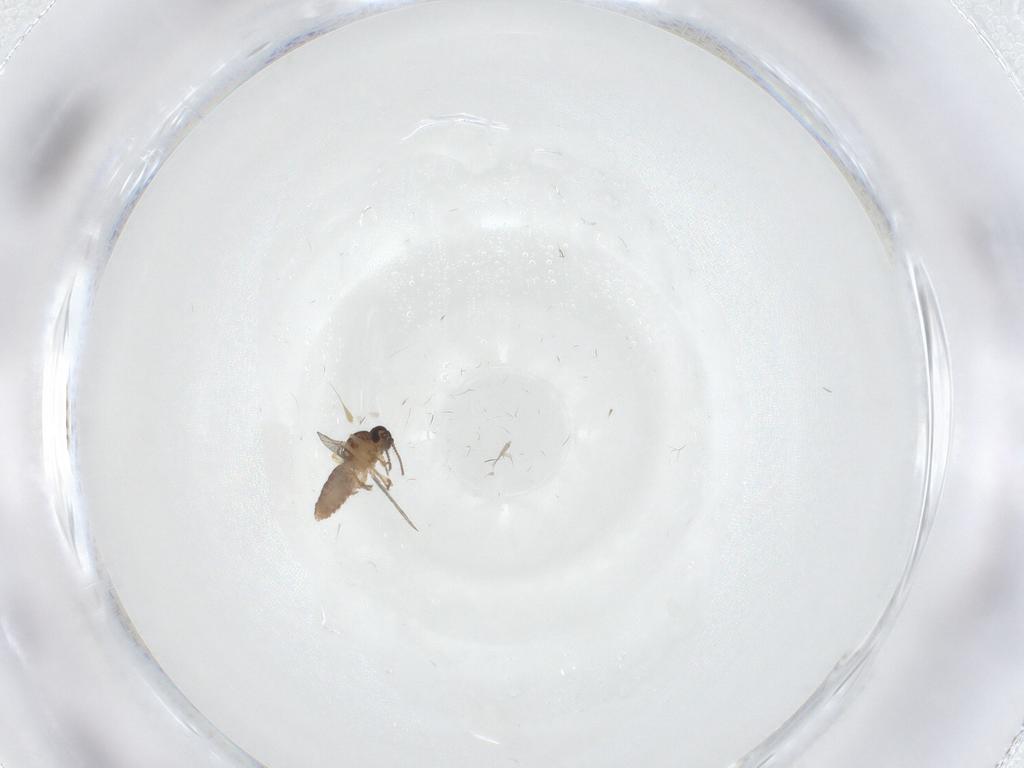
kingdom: Animalia
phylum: Arthropoda
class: Insecta
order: Diptera
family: Ceratopogonidae
